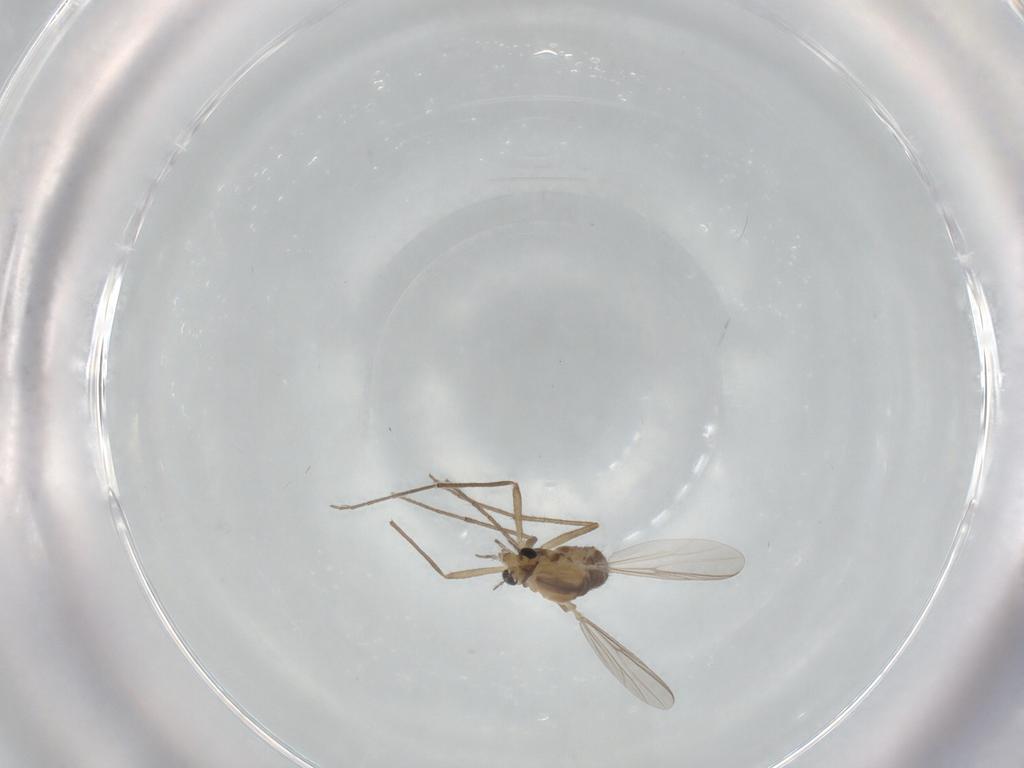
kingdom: Animalia
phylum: Arthropoda
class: Insecta
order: Diptera
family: Chironomidae
